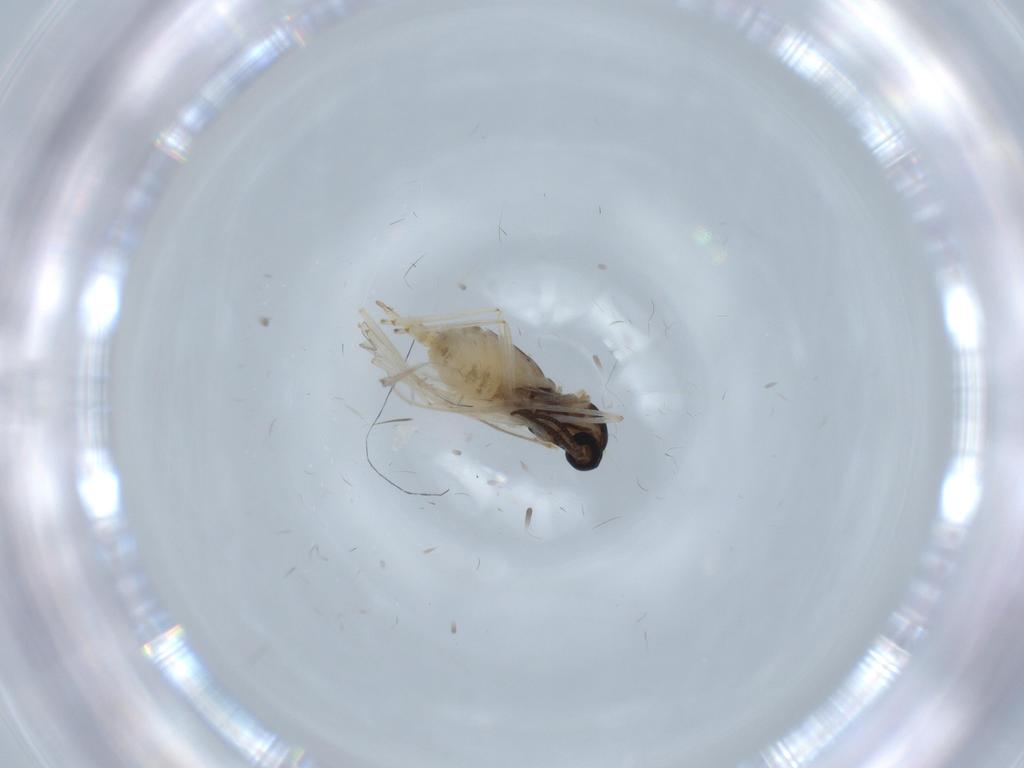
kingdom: Animalia
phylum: Arthropoda
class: Insecta
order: Diptera
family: Cecidomyiidae
